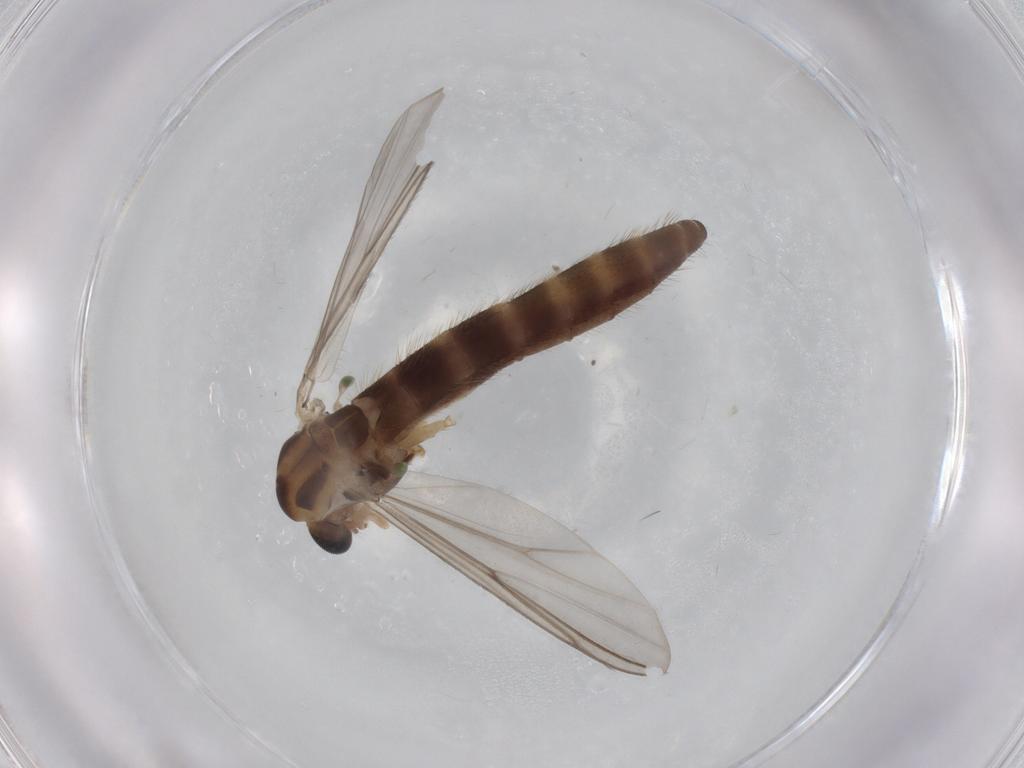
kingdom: Animalia
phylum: Arthropoda
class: Insecta
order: Diptera
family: Chironomidae
